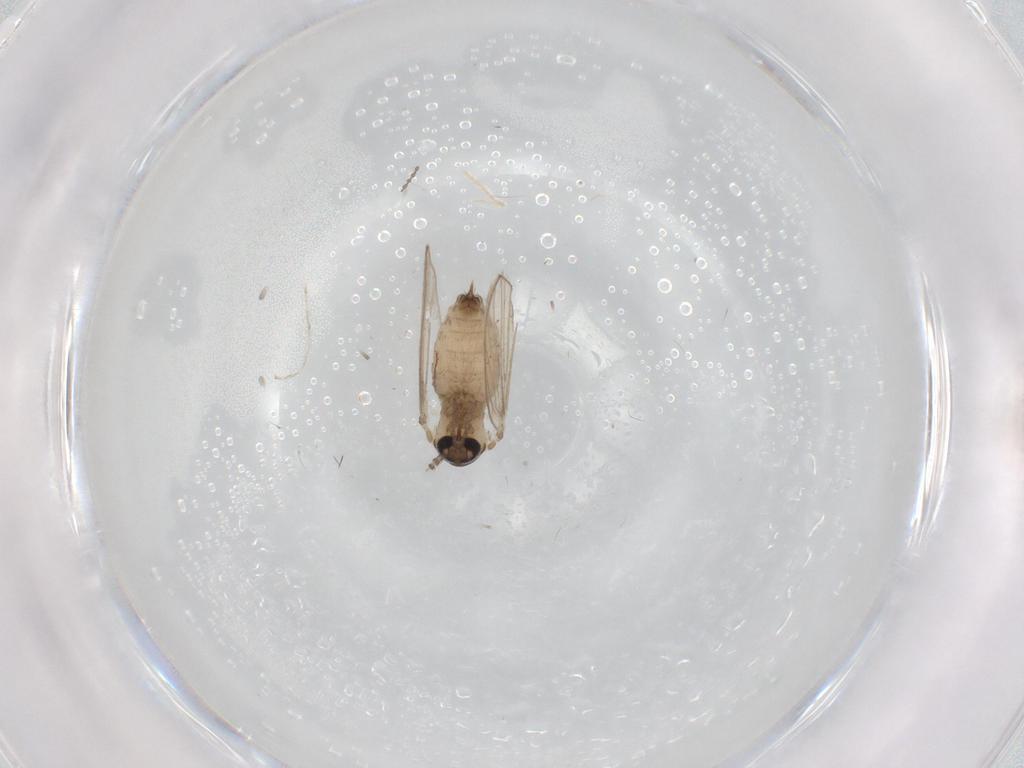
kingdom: Animalia
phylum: Arthropoda
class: Insecta
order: Diptera
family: Psychodidae
